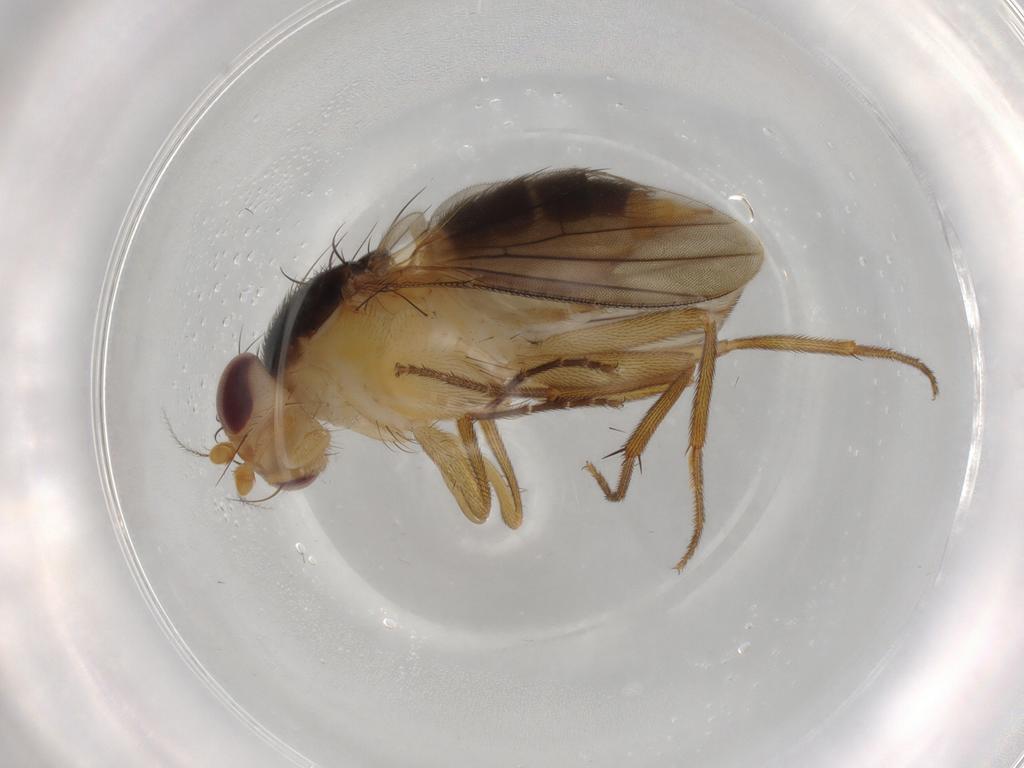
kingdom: Animalia
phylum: Arthropoda
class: Insecta
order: Diptera
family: Clusiidae
